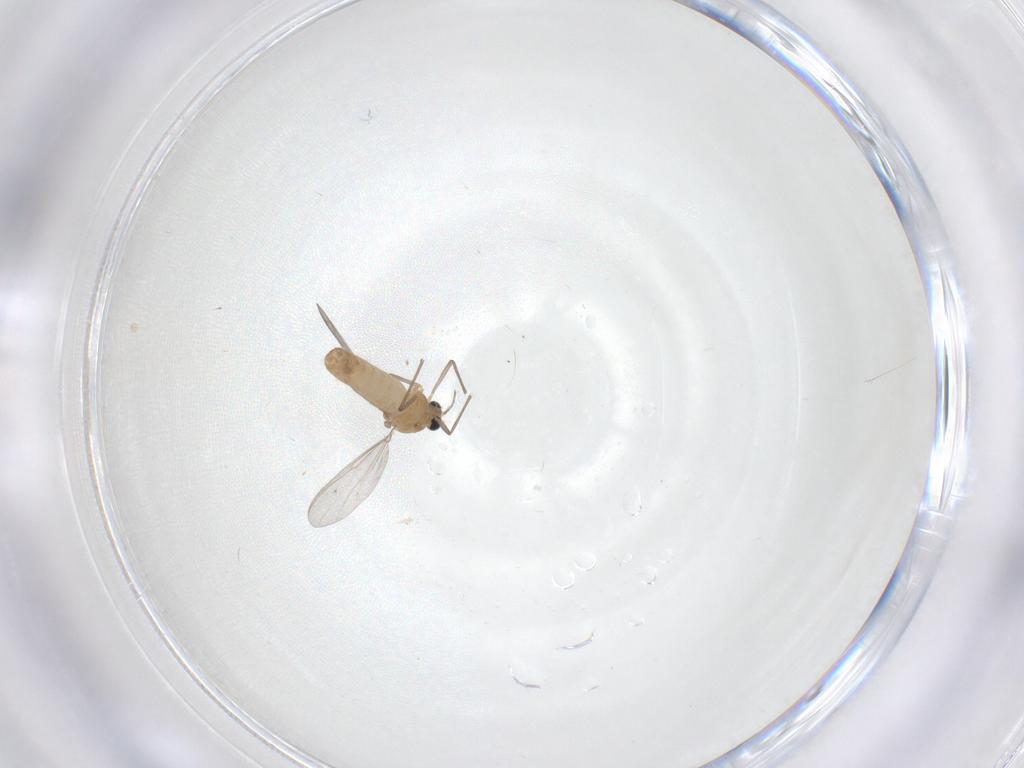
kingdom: Animalia
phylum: Arthropoda
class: Insecta
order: Diptera
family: Chironomidae
